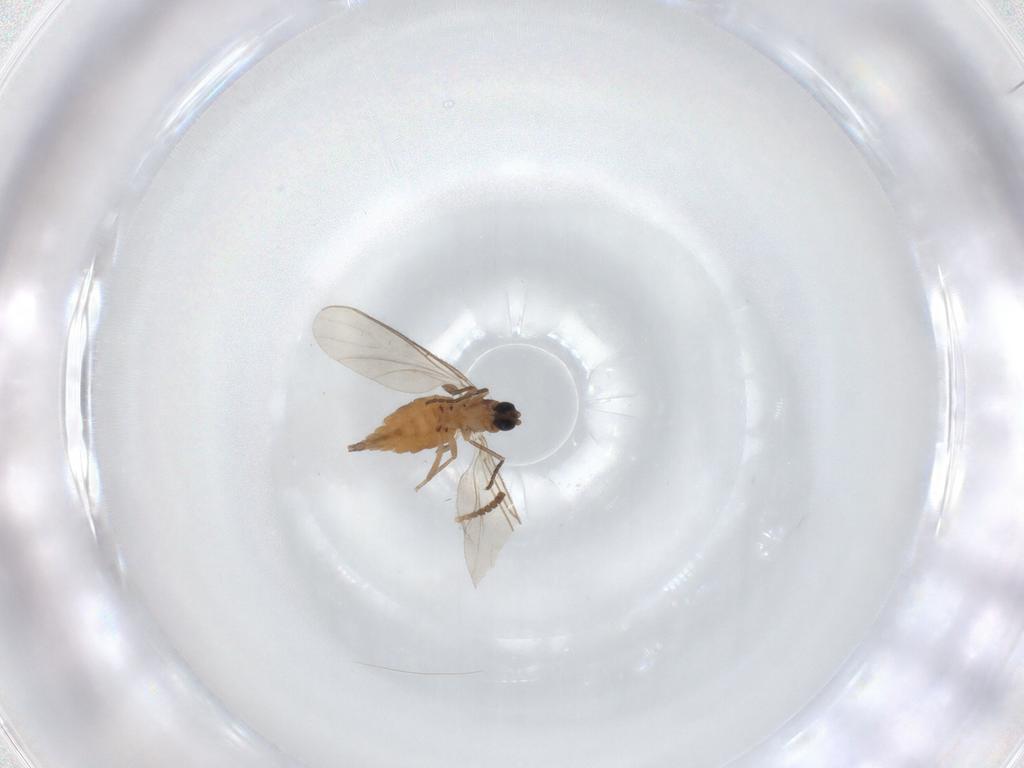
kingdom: Animalia
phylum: Arthropoda
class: Insecta
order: Diptera
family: Sciaridae
